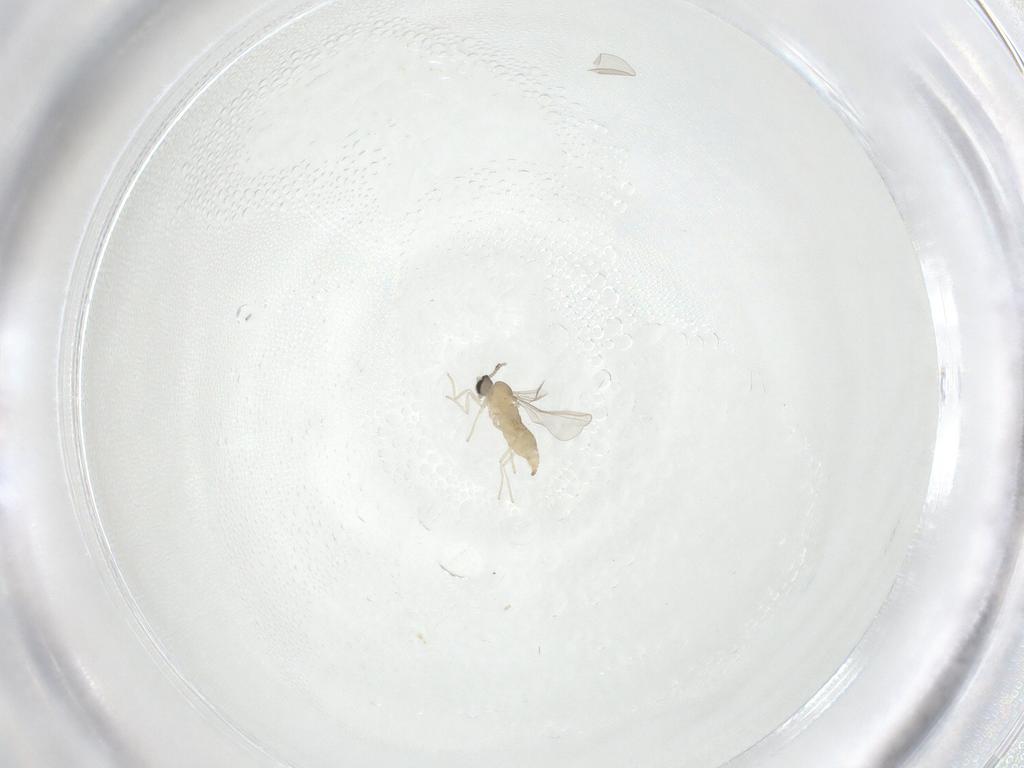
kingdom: Animalia
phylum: Arthropoda
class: Insecta
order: Diptera
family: Cecidomyiidae
